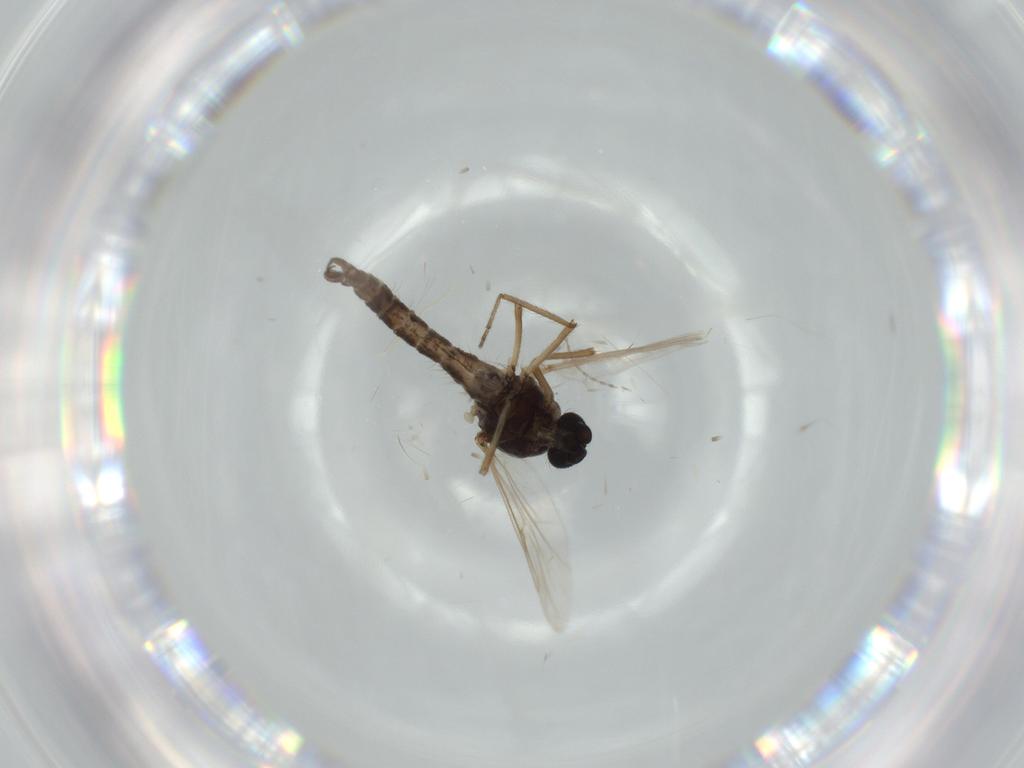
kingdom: Animalia
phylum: Arthropoda
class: Insecta
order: Diptera
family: Ceratopogonidae
